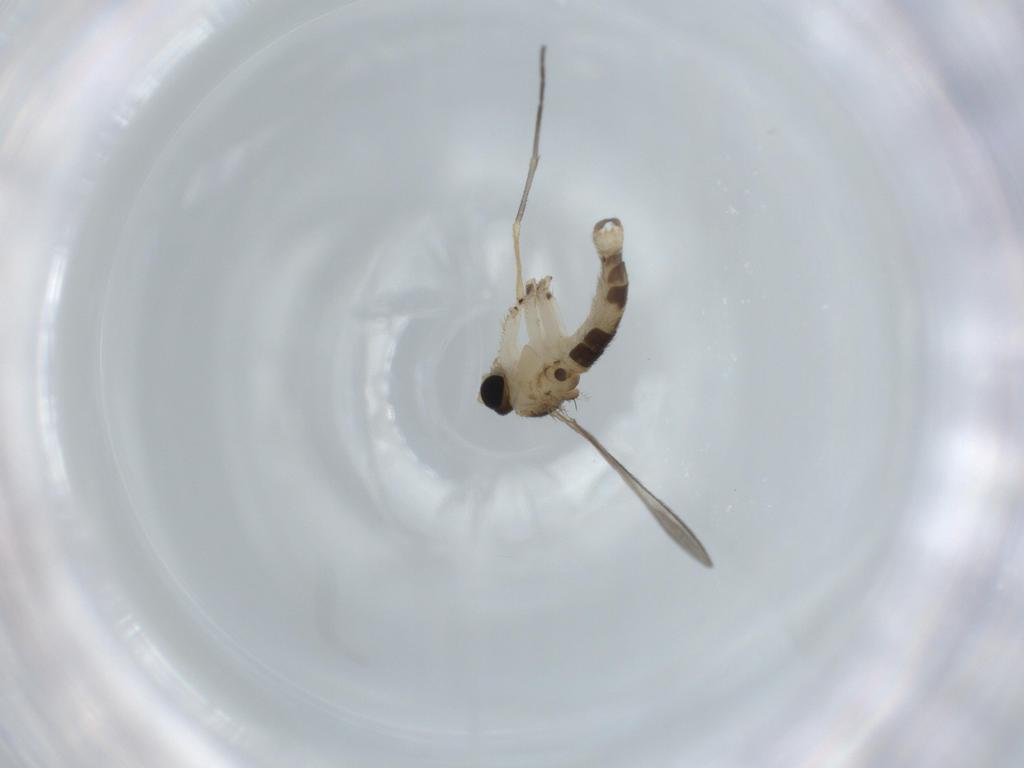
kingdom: Animalia
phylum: Arthropoda
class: Insecta
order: Diptera
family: Sciaridae
